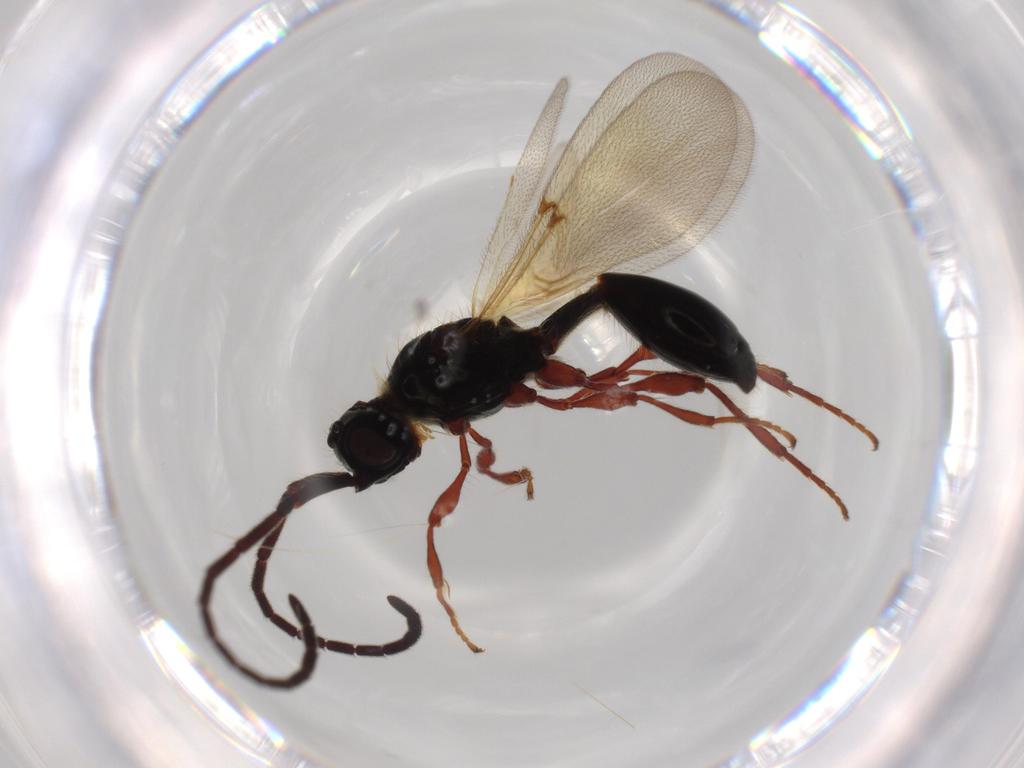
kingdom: Animalia
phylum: Arthropoda
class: Insecta
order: Hymenoptera
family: Diapriidae
